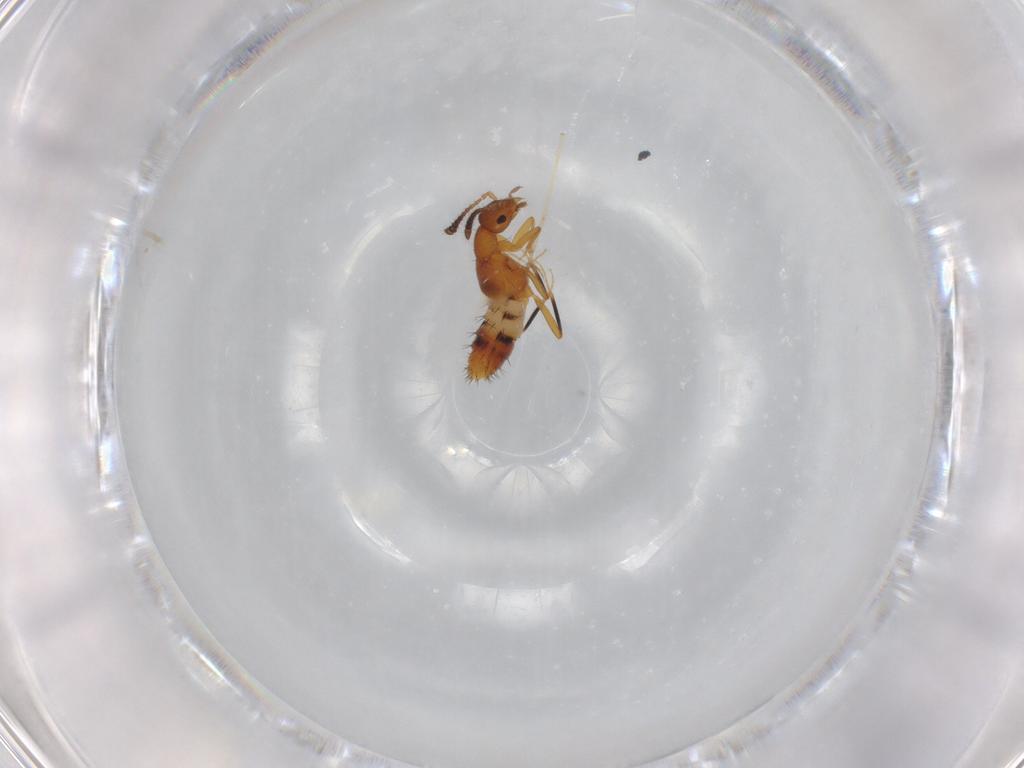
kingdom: Animalia
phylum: Arthropoda
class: Insecta
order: Coleoptera
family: Staphylinidae
